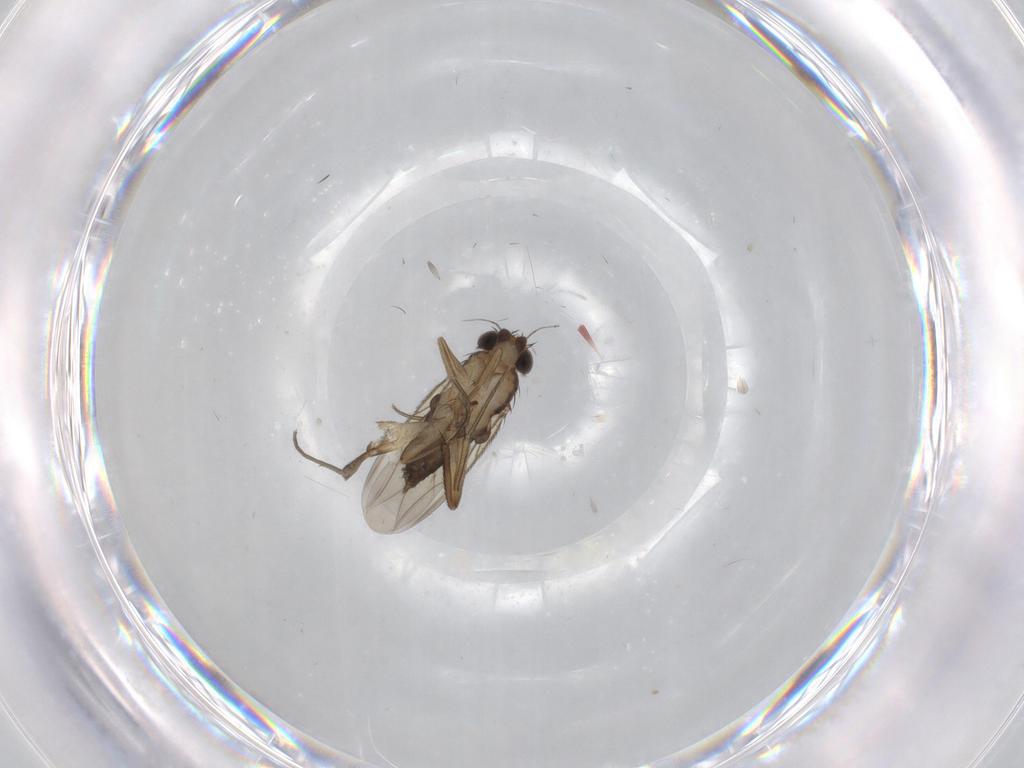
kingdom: Animalia
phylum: Arthropoda
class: Insecta
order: Diptera
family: Phoridae
